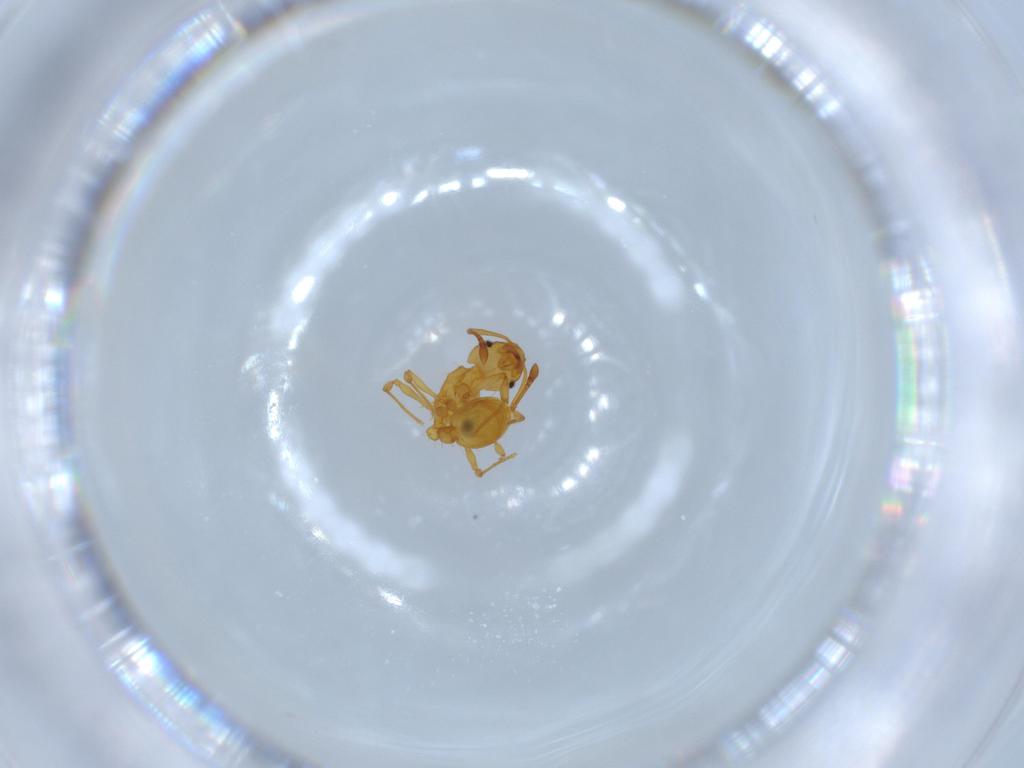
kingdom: Animalia
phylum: Arthropoda
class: Insecta
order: Hymenoptera
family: Formicidae
